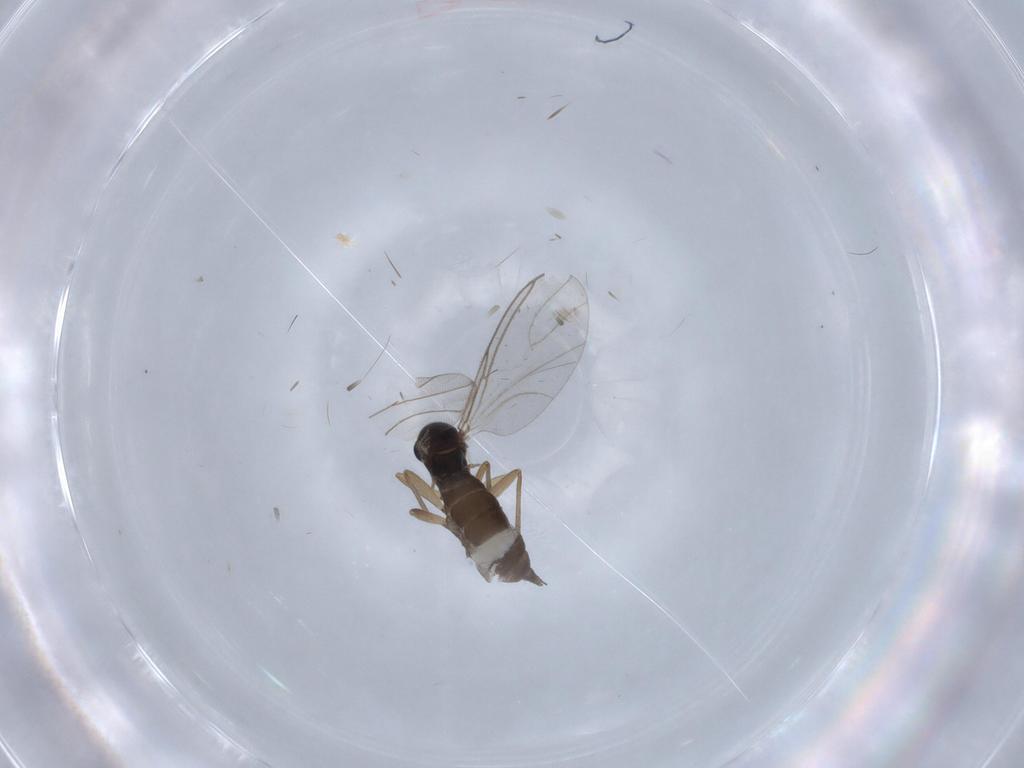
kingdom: Animalia
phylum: Arthropoda
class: Insecta
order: Diptera
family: Sciaridae
